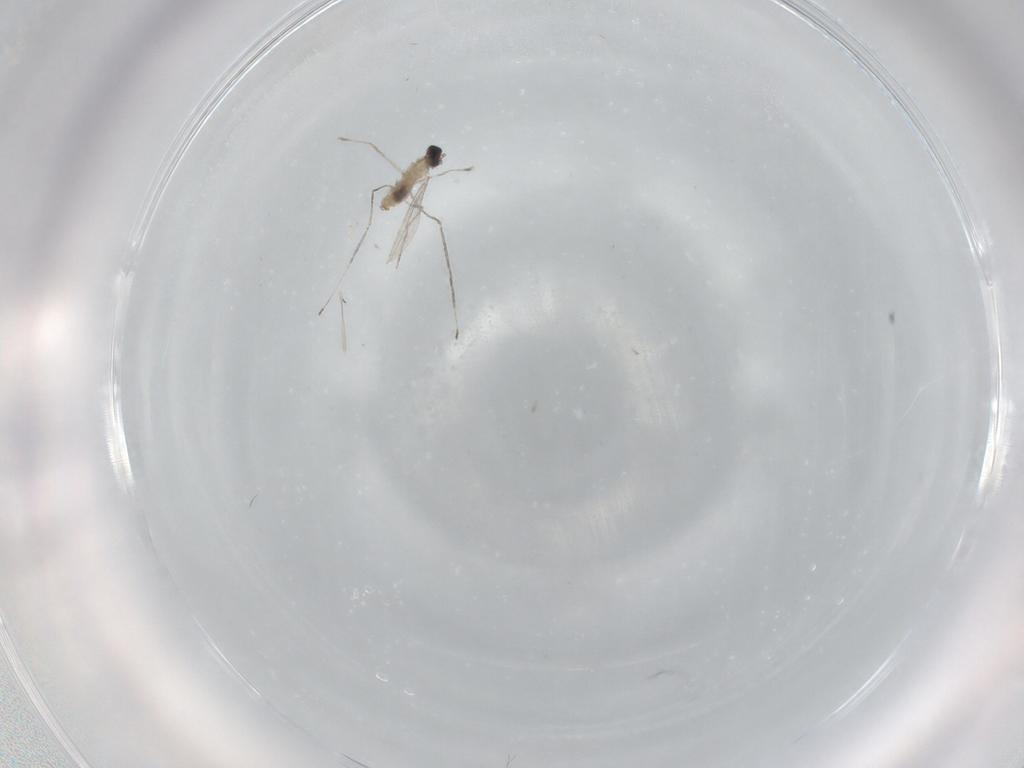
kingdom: Animalia
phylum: Arthropoda
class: Insecta
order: Diptera
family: Cecidomyiidae
